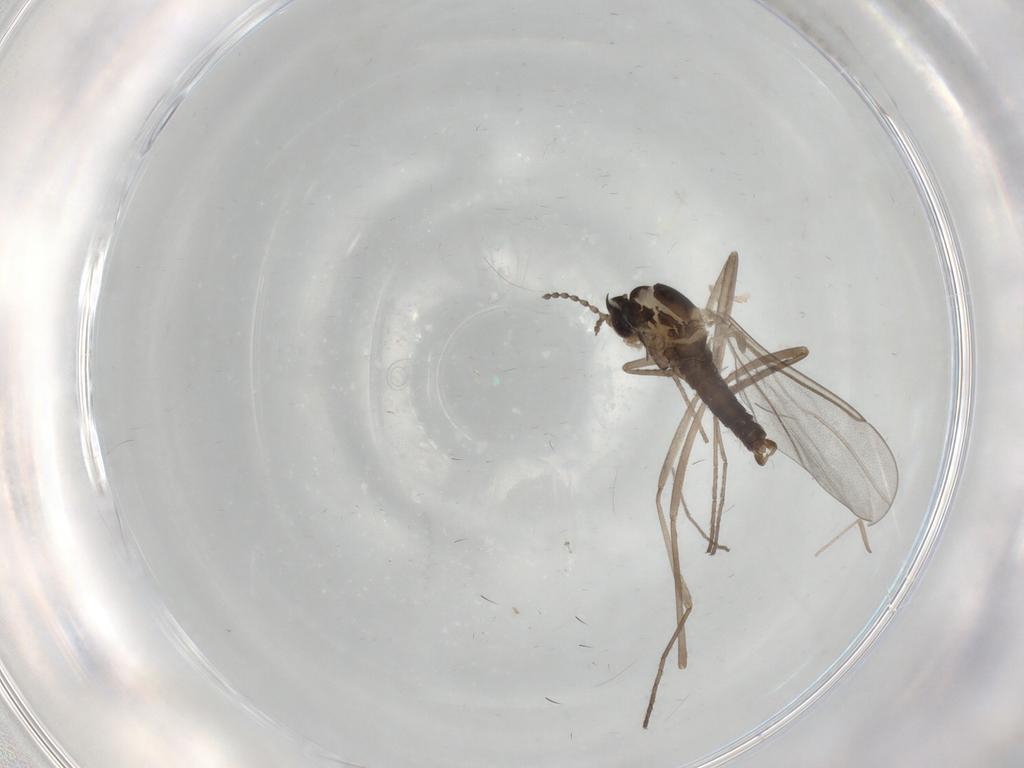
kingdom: Animalia
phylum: Arthropoda
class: Insecta
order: Diptera
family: Cecidomyiidae
